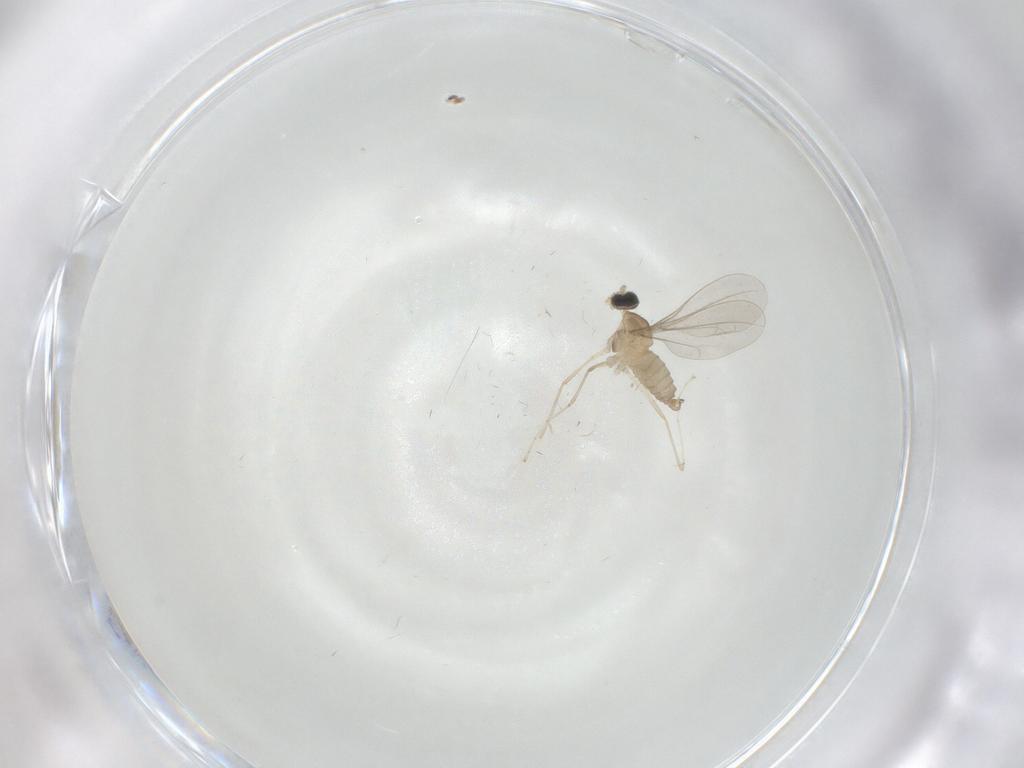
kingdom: Animalia
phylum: Arthropoda
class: Insecta
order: Diptera
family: Cecidomyiidae
